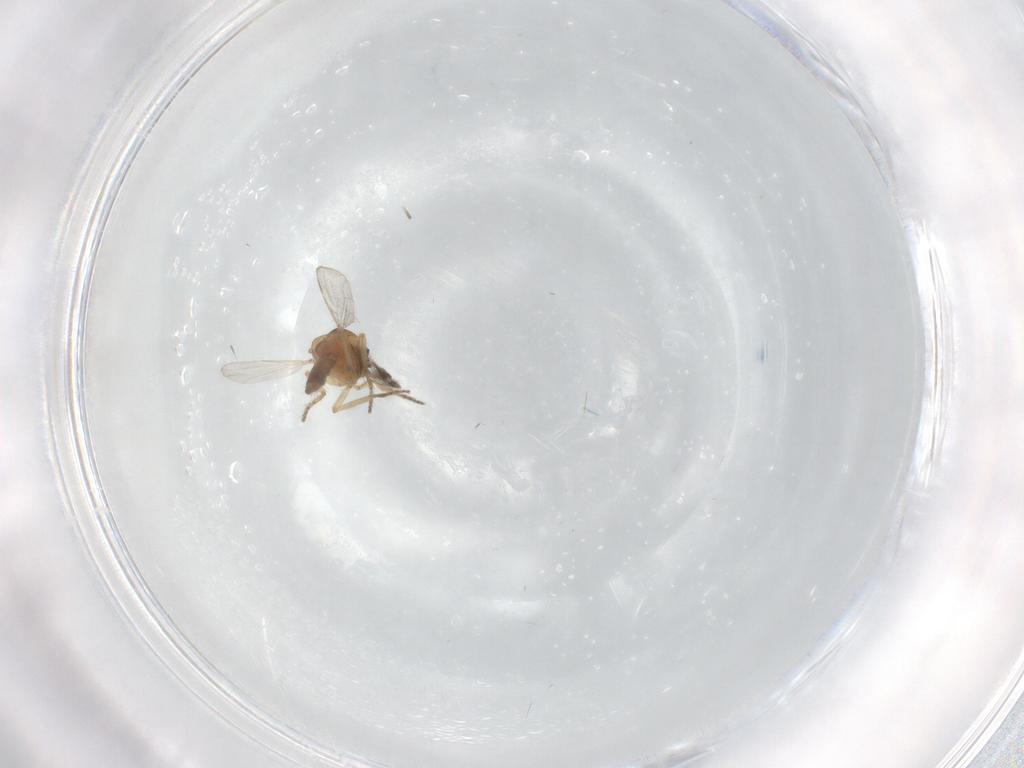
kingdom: Animalia
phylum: Arthropoda
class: Insecta
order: Diptera
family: Ceratopogonidae
